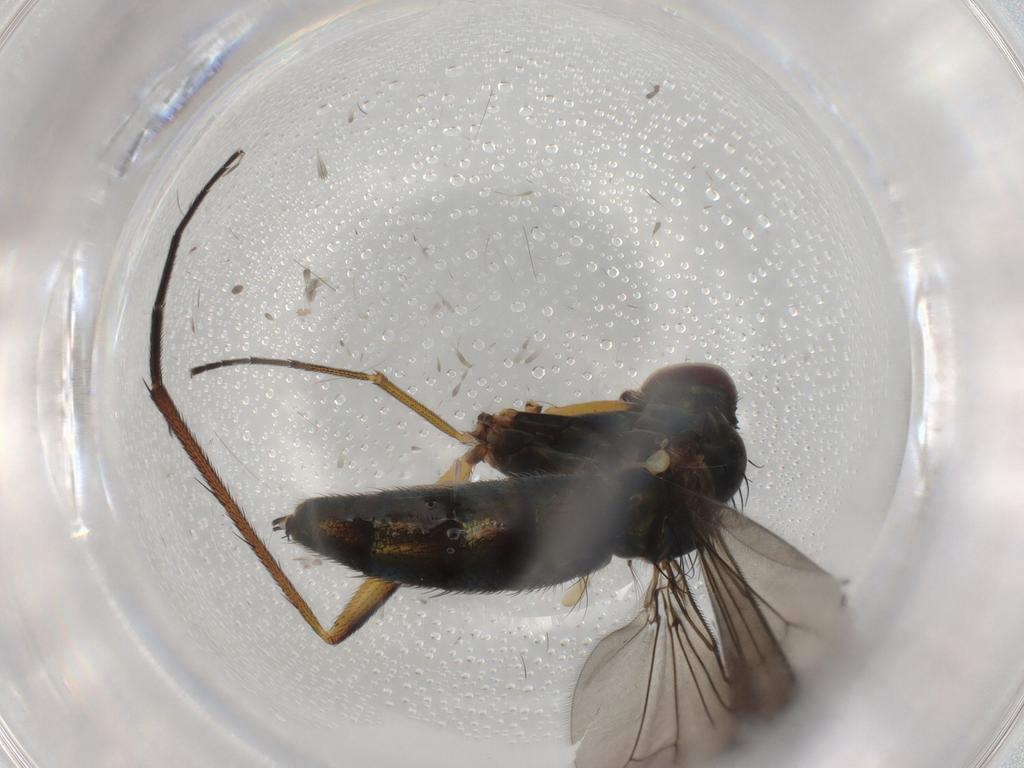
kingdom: Animalia
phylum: Arthropoda
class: Insecta
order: Diptera
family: Dolichopodidae
